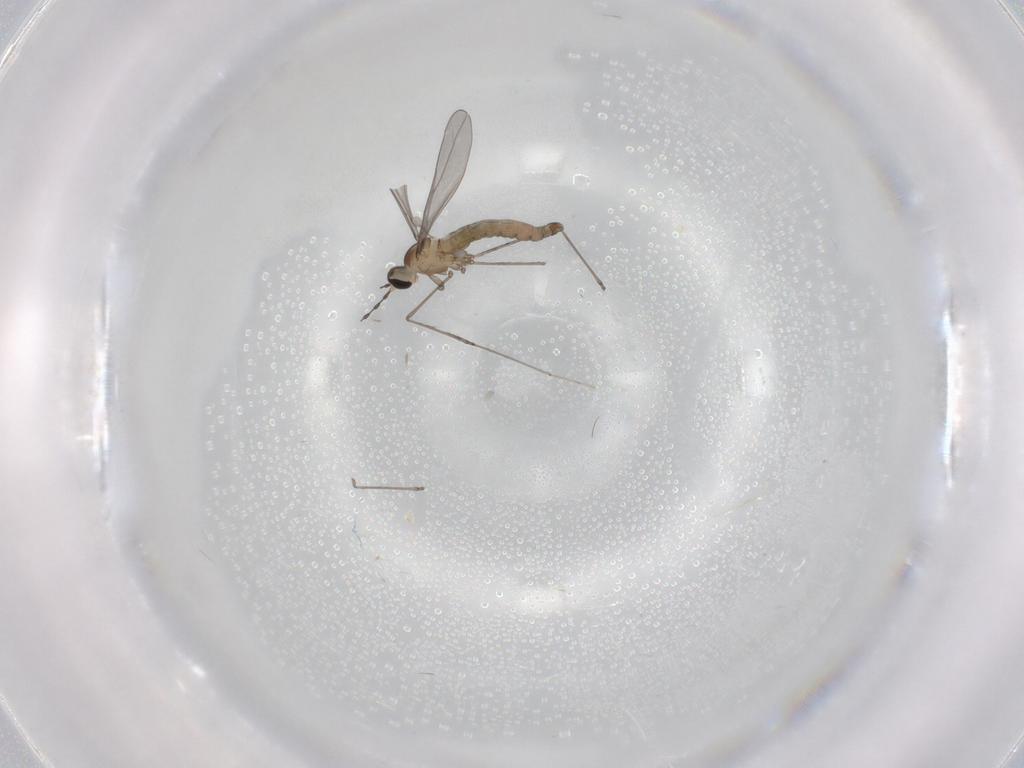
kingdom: Animalia
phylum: Arthropoda
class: Insecta
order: Diptera
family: Cecidomyiidae
